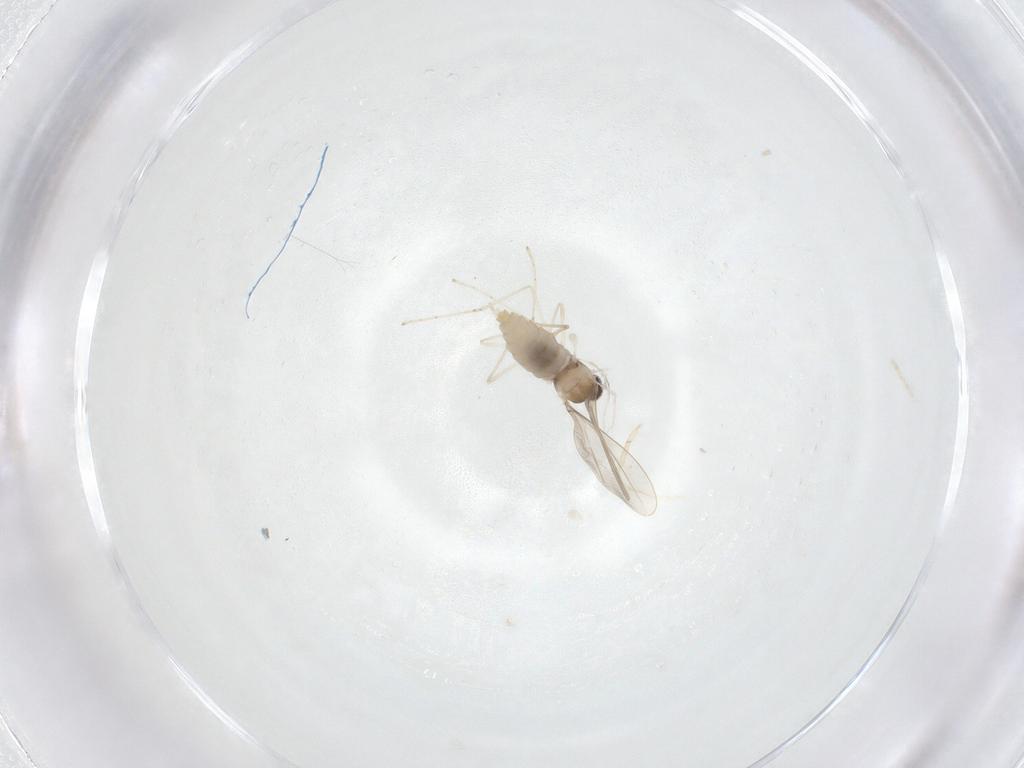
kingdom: Animalia
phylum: Arthropoda
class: Insecta
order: Diptera
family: Cecidomyiidae
